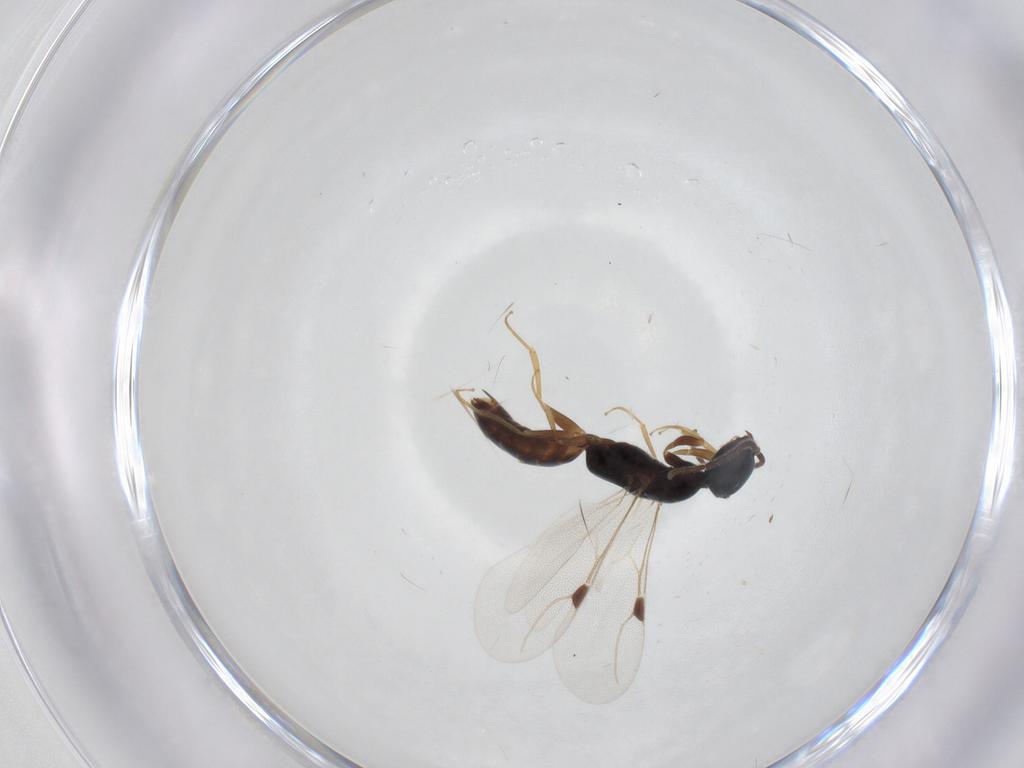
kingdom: Animalia
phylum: Arthropoda
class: Insecta
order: Hymenoptera
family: Bethylidae
